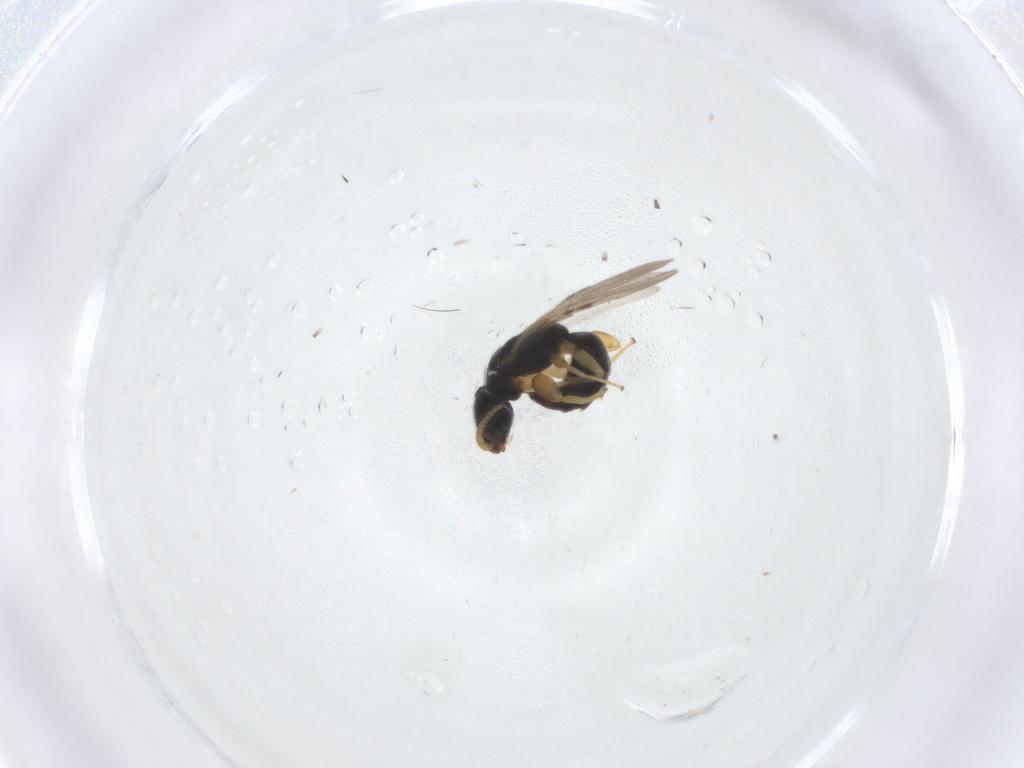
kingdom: Animalia
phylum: Arthropoda
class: Insecta
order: Hymenoptera
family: Bethylidae
